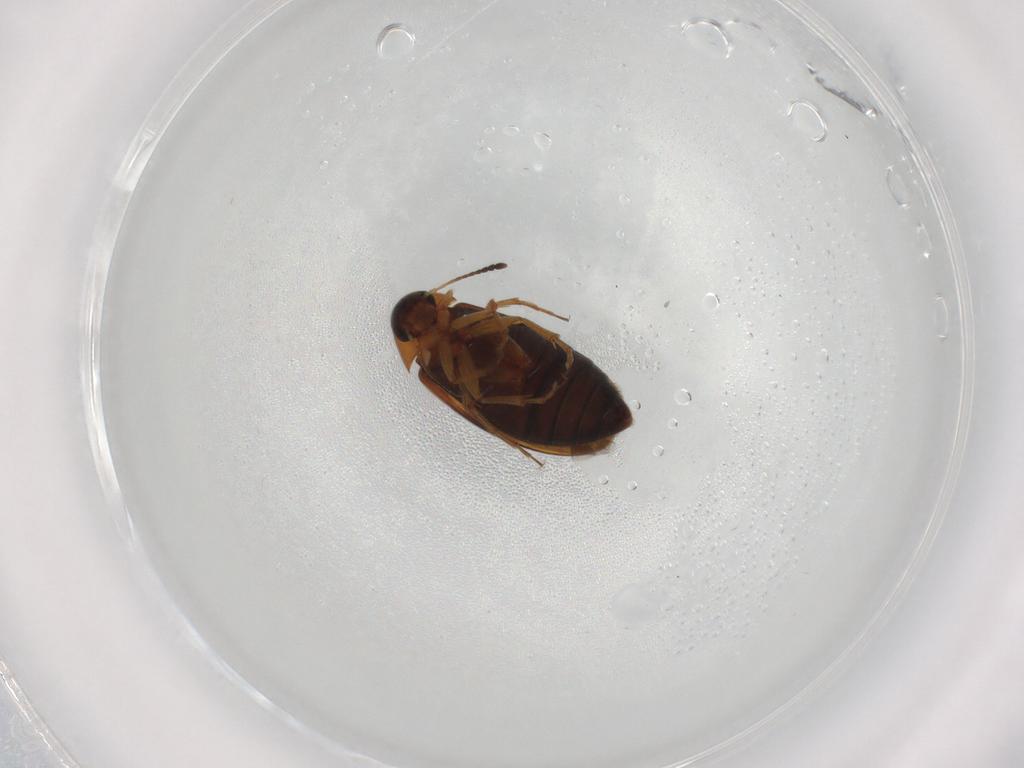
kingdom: Animalia
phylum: Arthropoda
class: Insecta
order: Coleoptera
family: Scraptiidae
